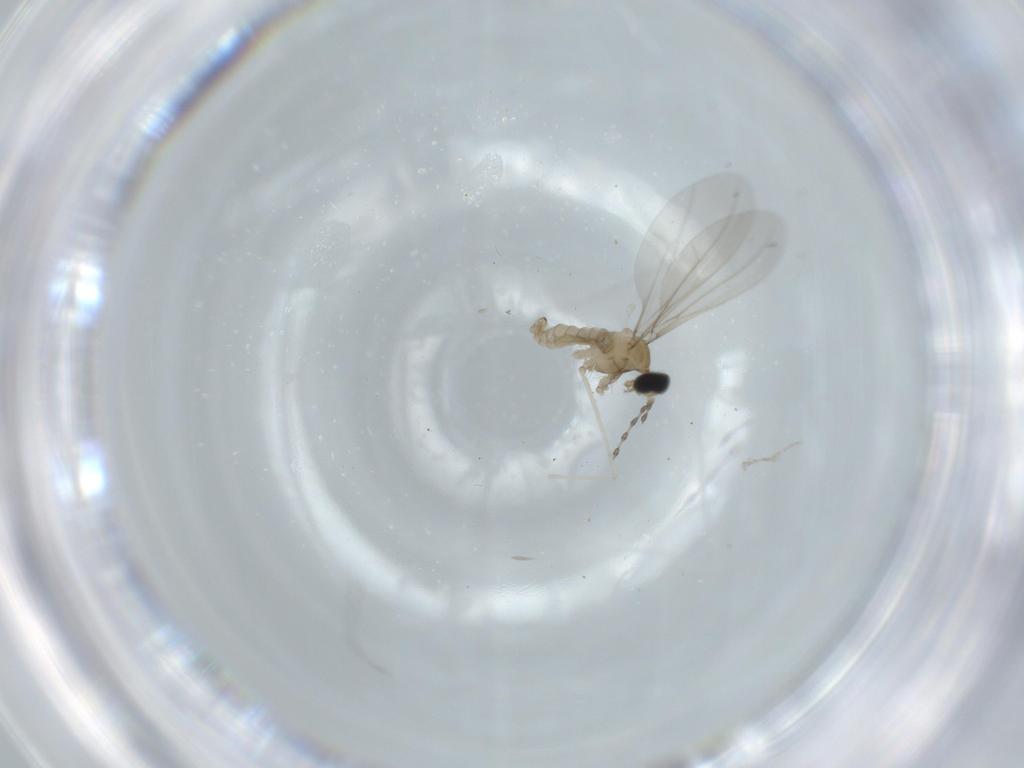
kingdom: Animalia
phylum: Arthropoda
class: Insecta
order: Diptera
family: Cecidomyiidae
